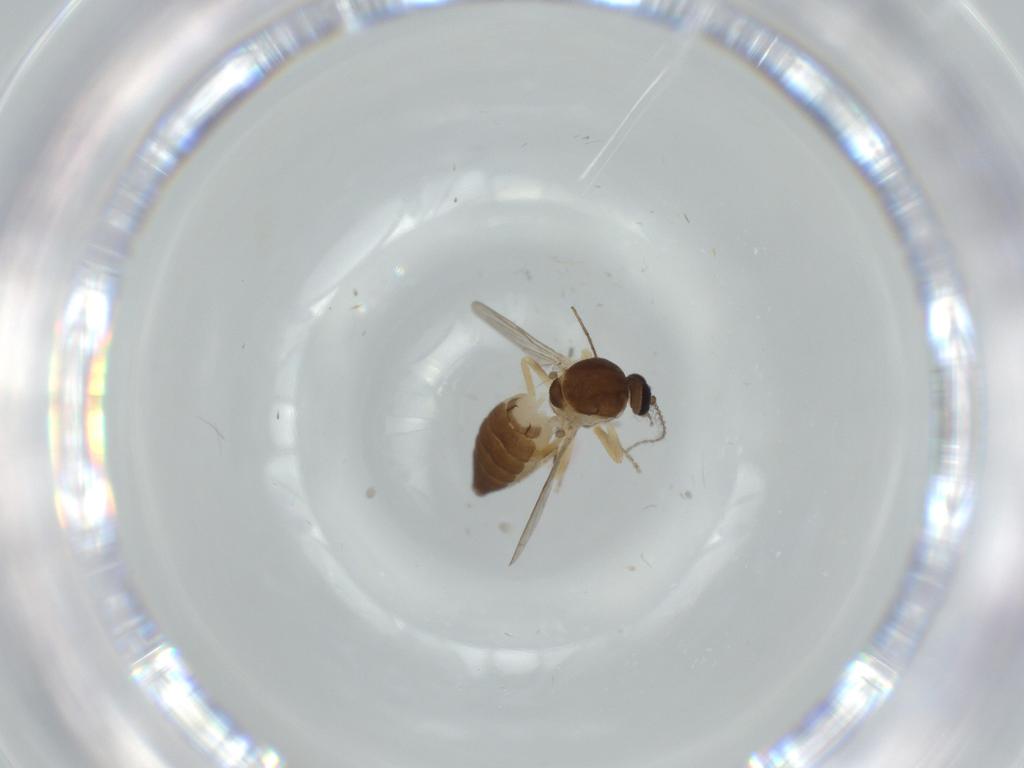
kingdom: Animalia
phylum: Arthropoda
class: Insecta
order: Diptera
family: Ceratopogonidae
